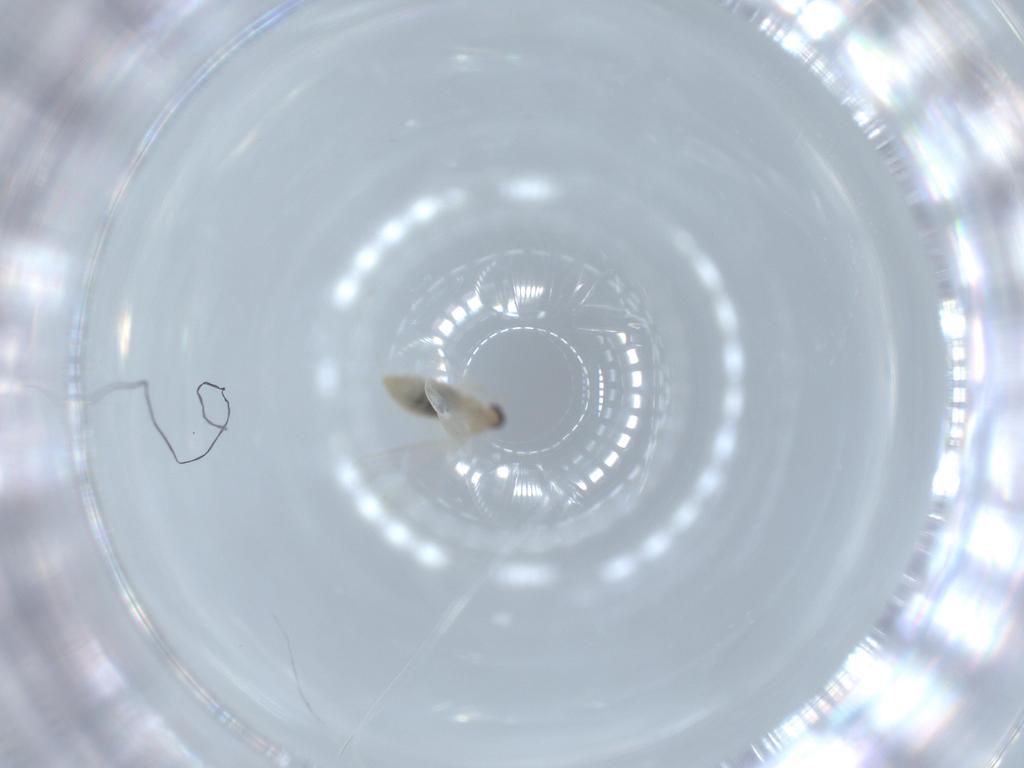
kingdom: Animalia
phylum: Arthropoda
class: Insecta
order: Diptera
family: Cecidomyiidae
